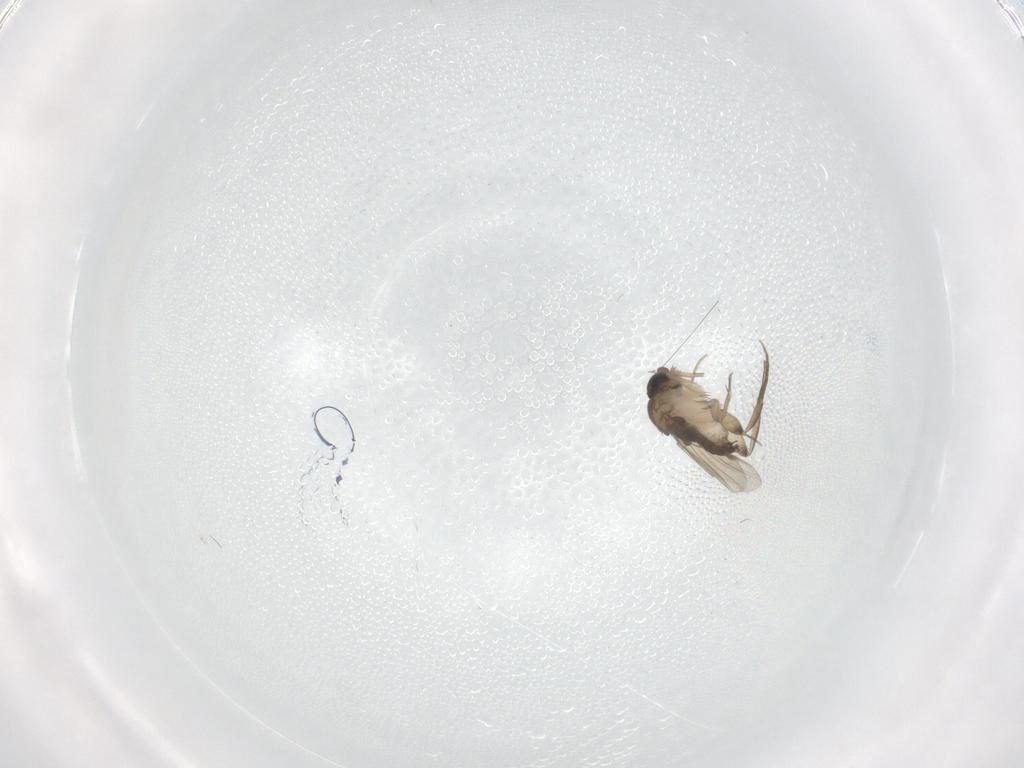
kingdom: Animalia
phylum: Arthropoda
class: Insecta
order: Diptera
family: Phoridae
